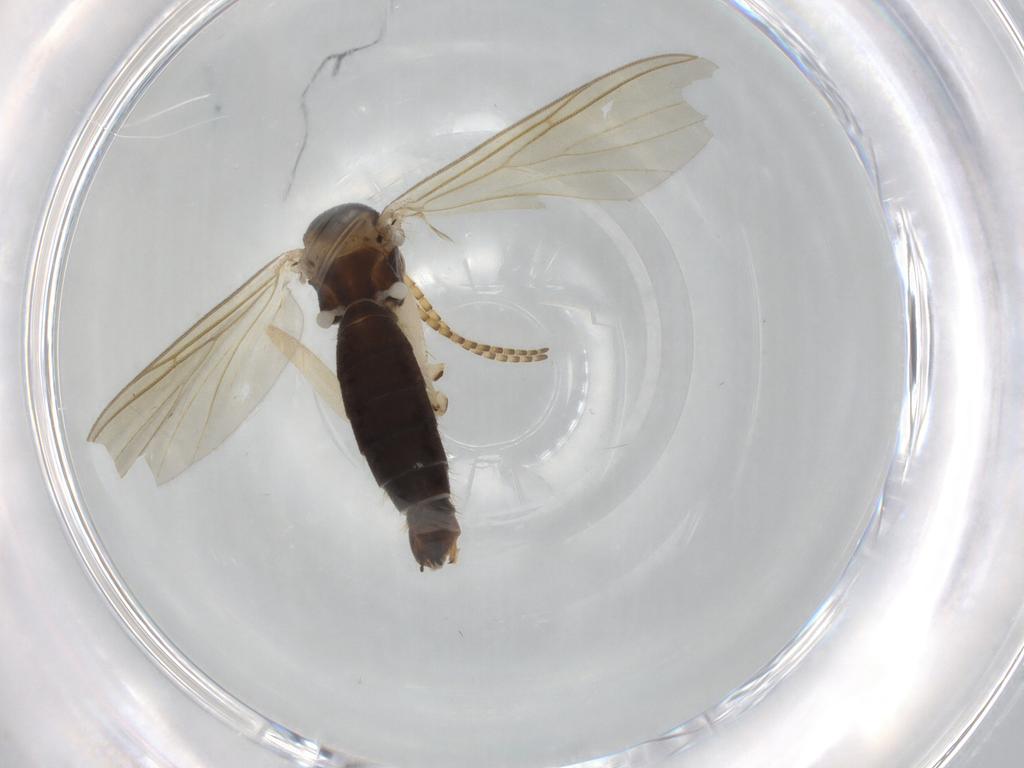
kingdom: Animalia
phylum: Arthropoda
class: Insecta
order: Diptera
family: Mycetophilidae
